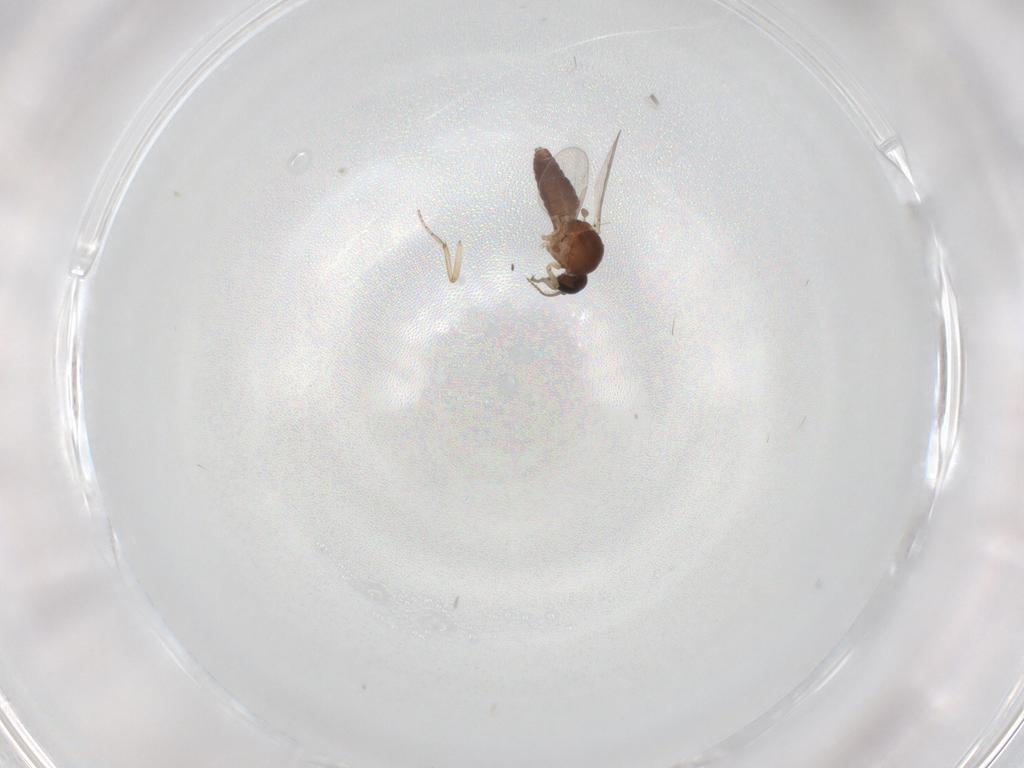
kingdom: Animalia
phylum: Arthropoda
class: Insecta
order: Diptera
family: Ceratopogonidae
